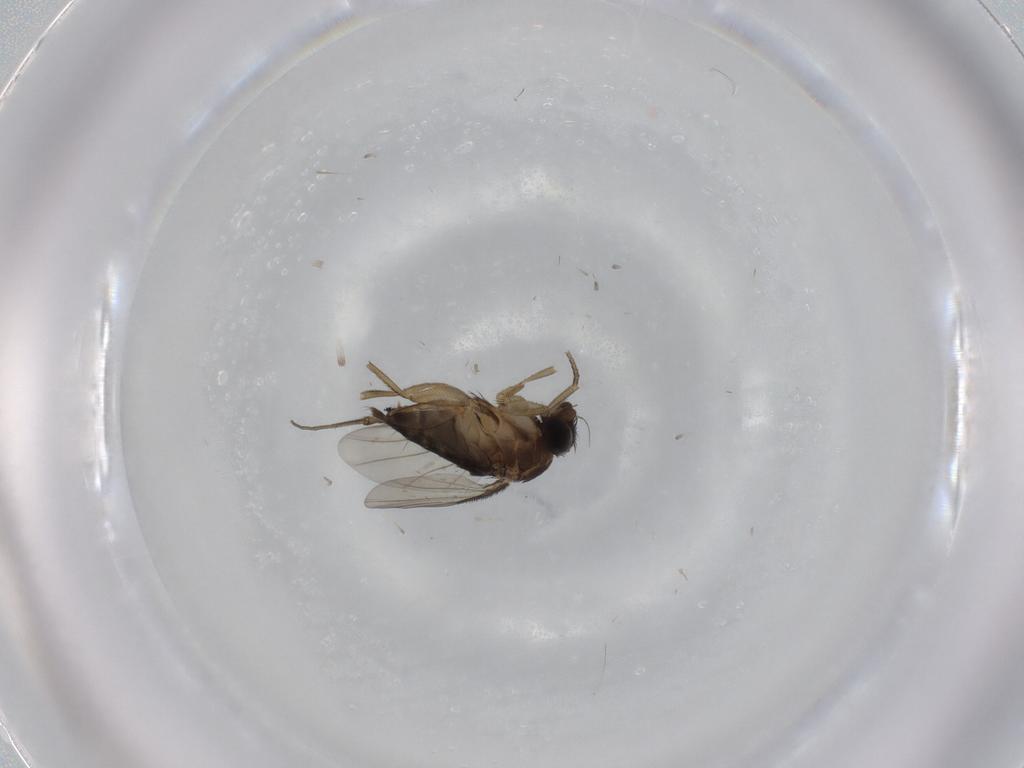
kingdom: Animalia
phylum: Arthropoda
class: Insecta
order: Diptera
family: Phoridae
